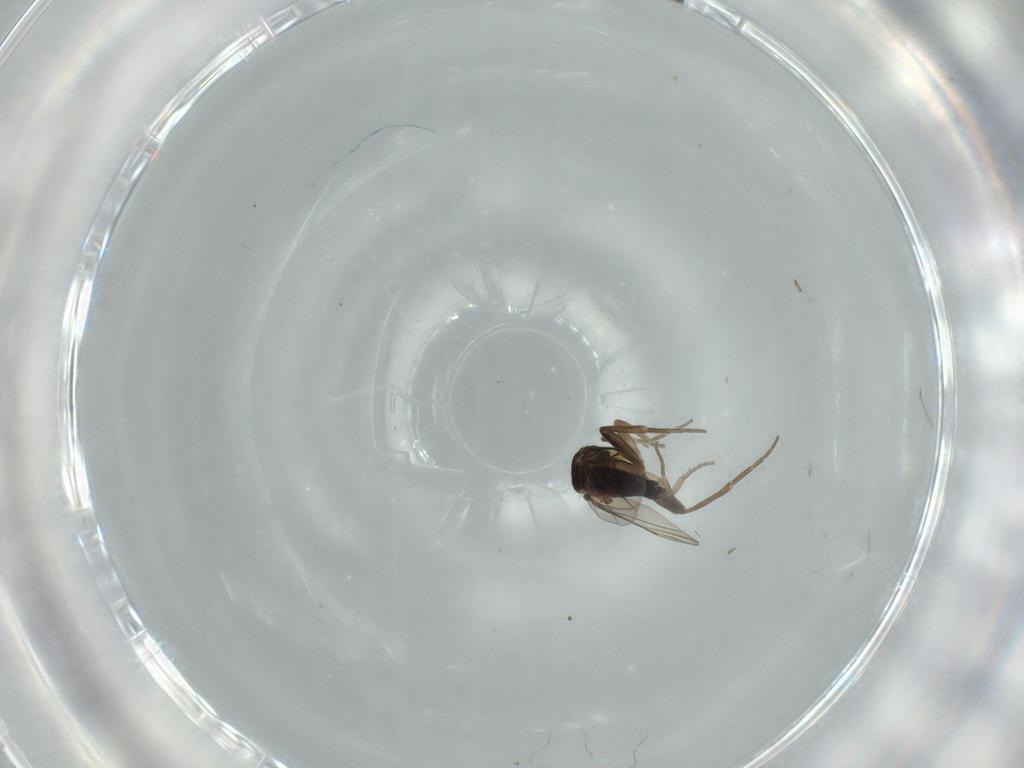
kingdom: Animalia
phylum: Arthropoda
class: Insecta
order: Diptera
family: Phoridae
